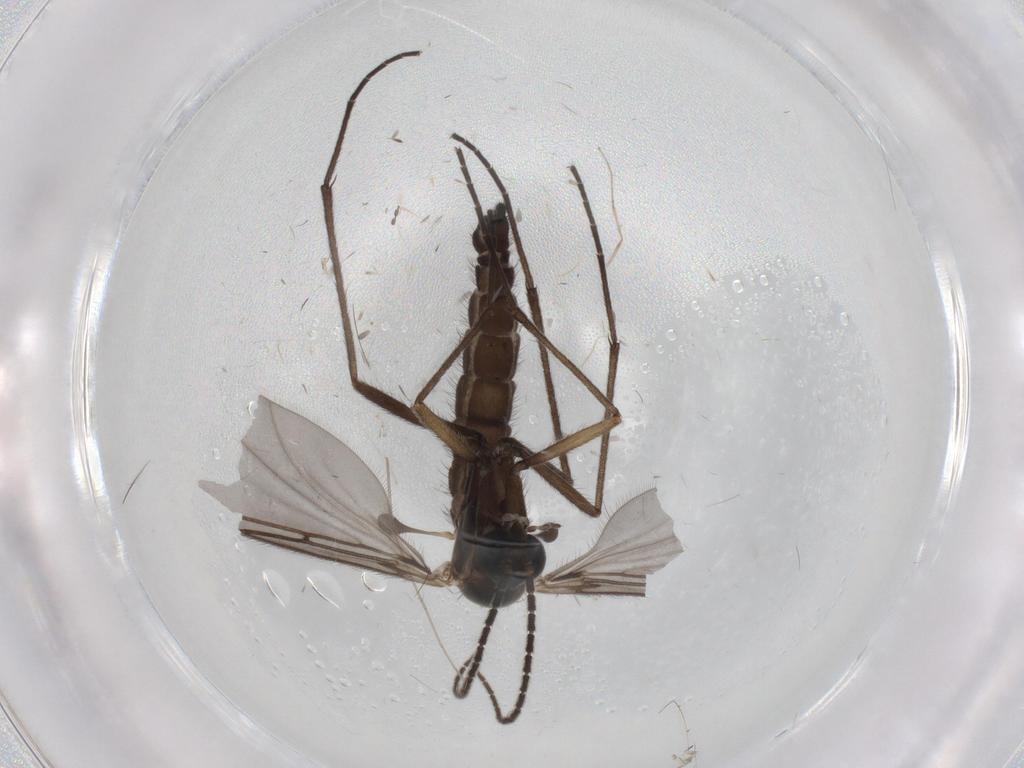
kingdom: Animalia
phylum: Arthropoda
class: Insecta
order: Diptera
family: Sciaridae
